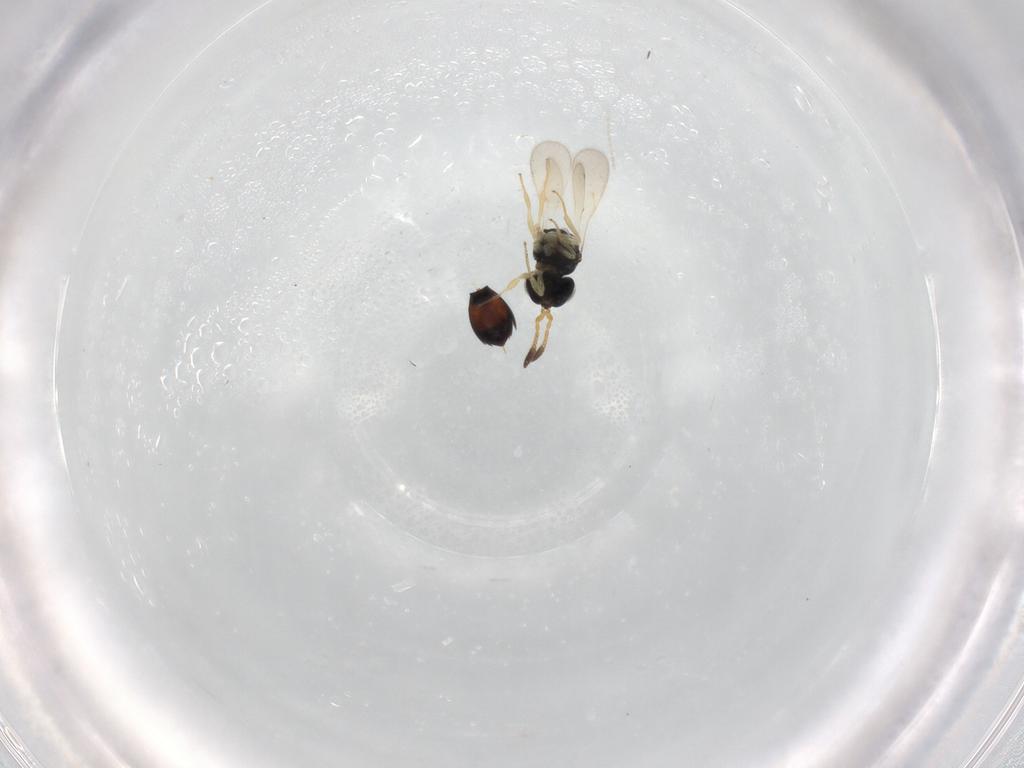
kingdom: Animalia
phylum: Arthropoda
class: Insecta
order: Hymenoptera
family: Scelionidae
